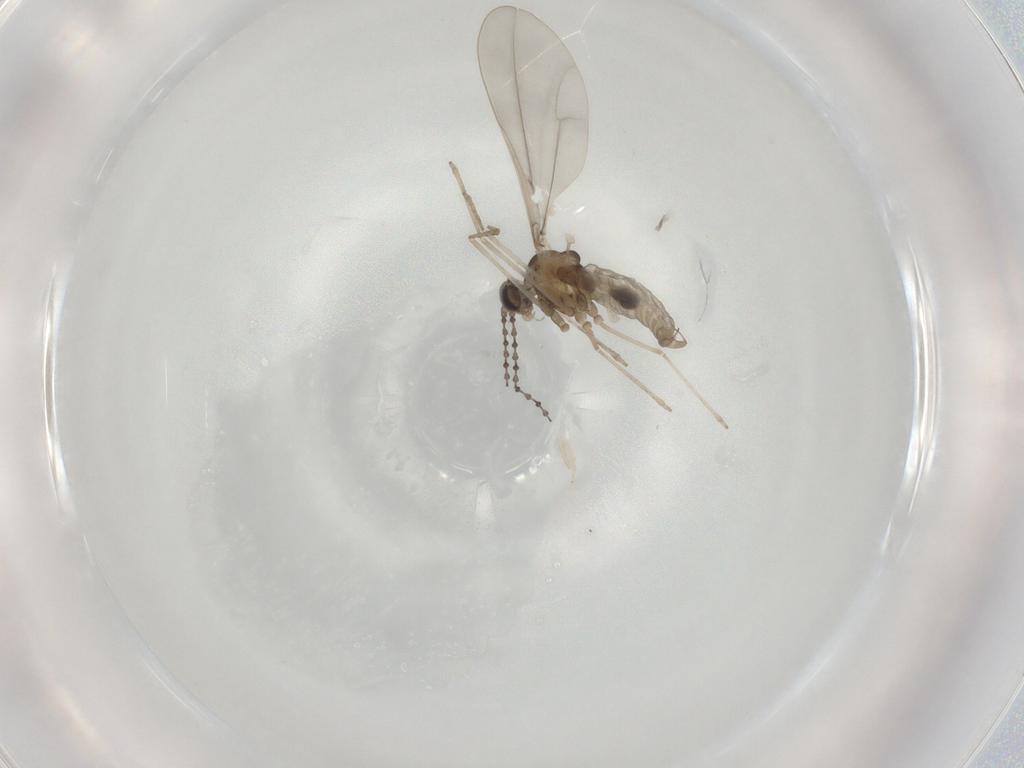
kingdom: Animalia
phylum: Arthropoda
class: Insecta
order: Diptera
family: Cecidomyiidae
